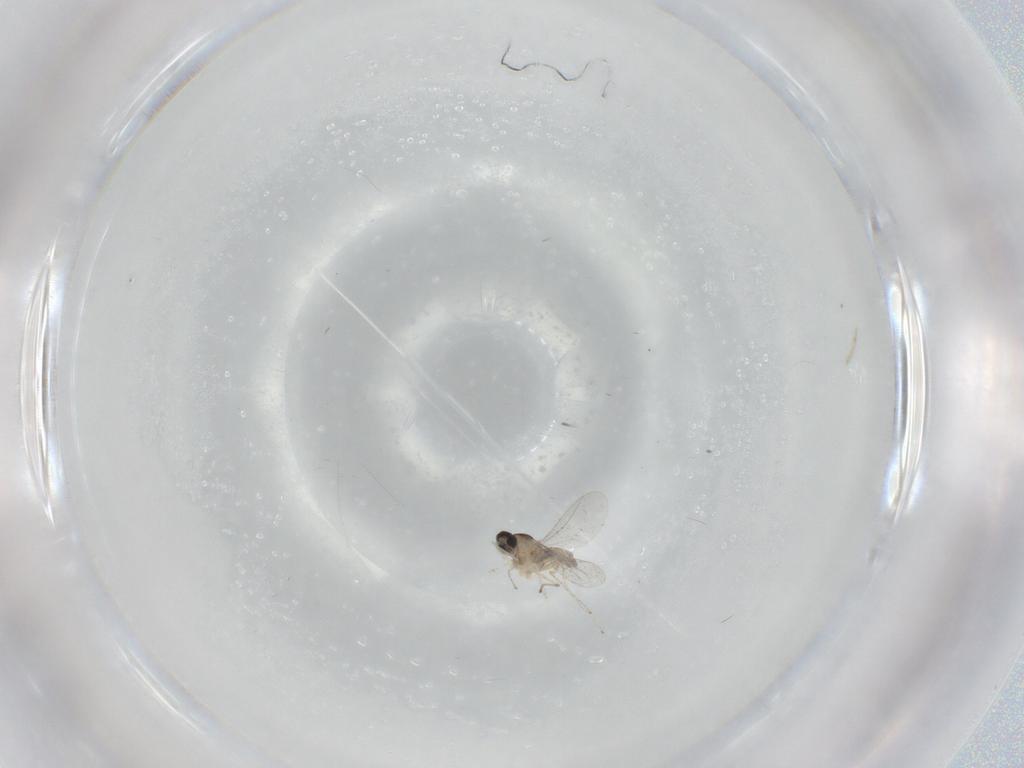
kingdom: Animalia
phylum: Arthropoda
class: Insecta
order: Diptera
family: Cecidomyiidae
